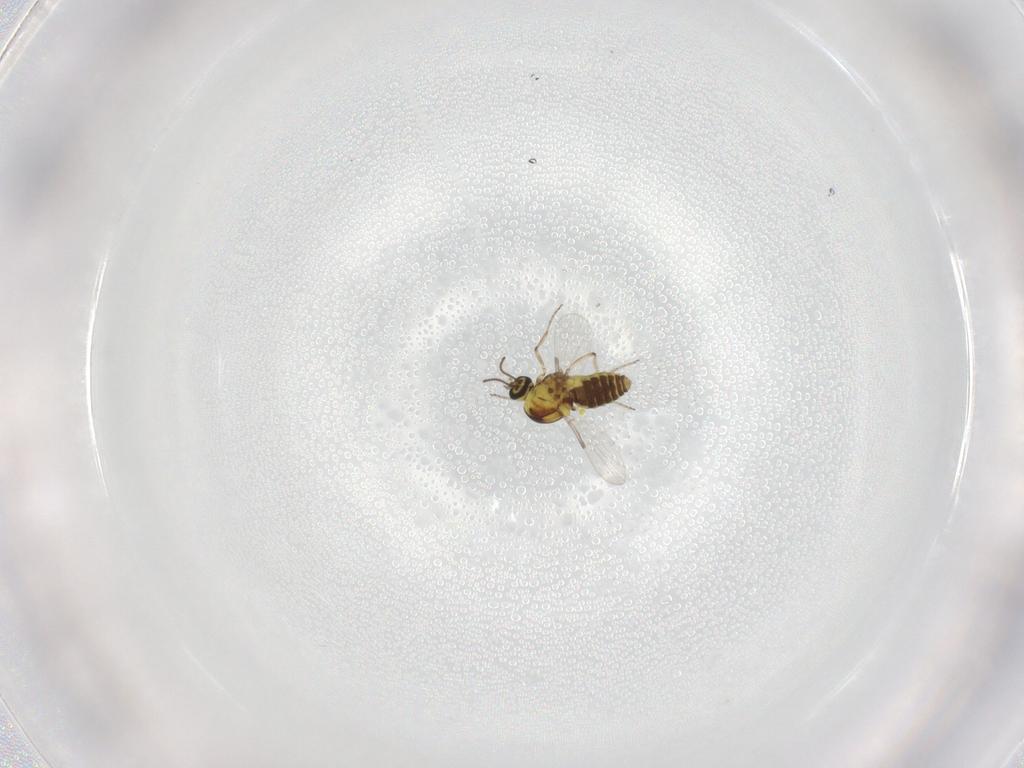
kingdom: Animalia
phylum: Arthropoda
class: Insecta
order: Diptera
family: Ceratopogonidae
